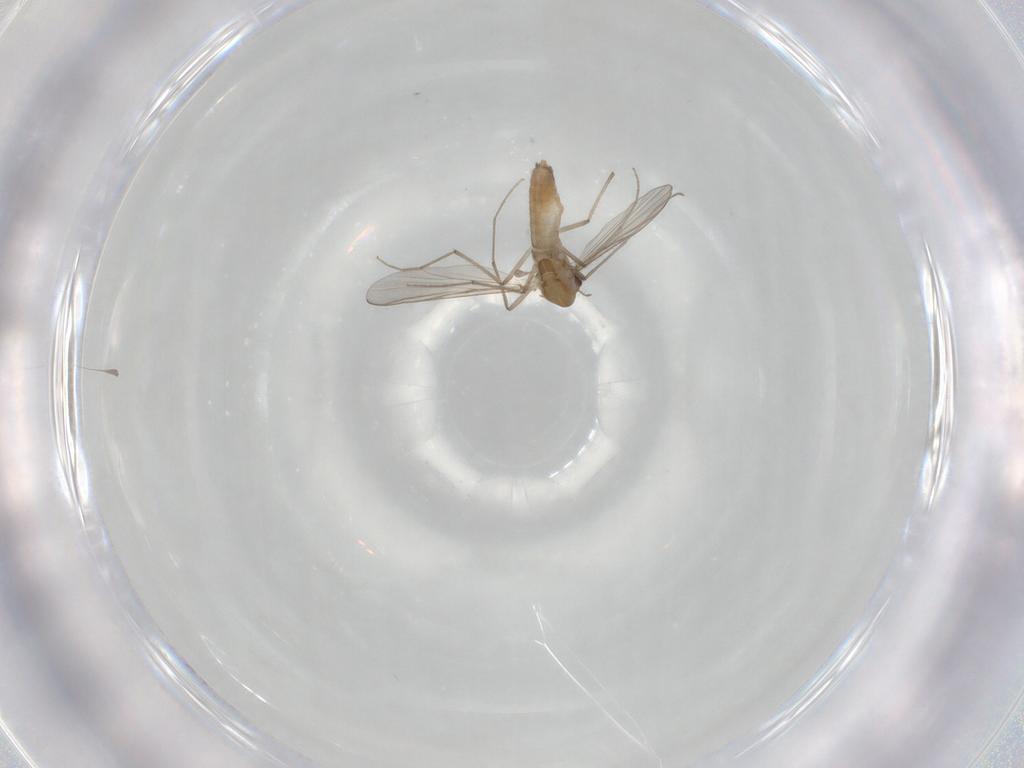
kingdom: Animalia
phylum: Arthropoda
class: Insecta
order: Diptera
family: Chironomidae
